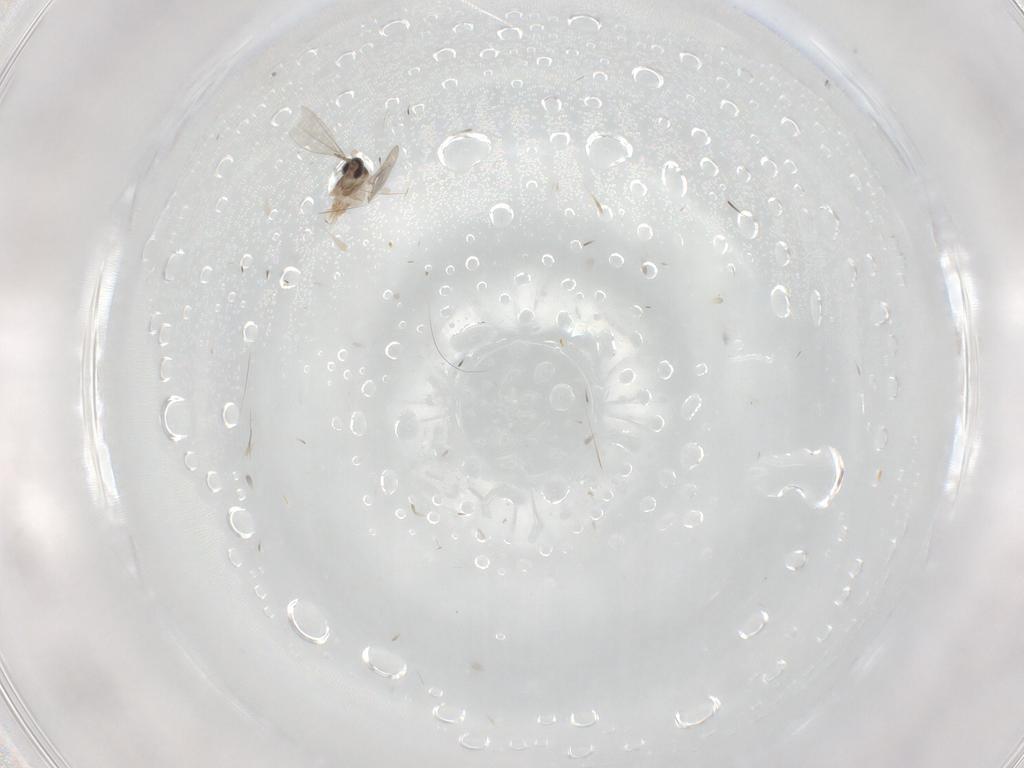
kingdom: Animalia
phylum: Arthropoda
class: Insecta
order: Diptera
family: Cecidomyiidae
